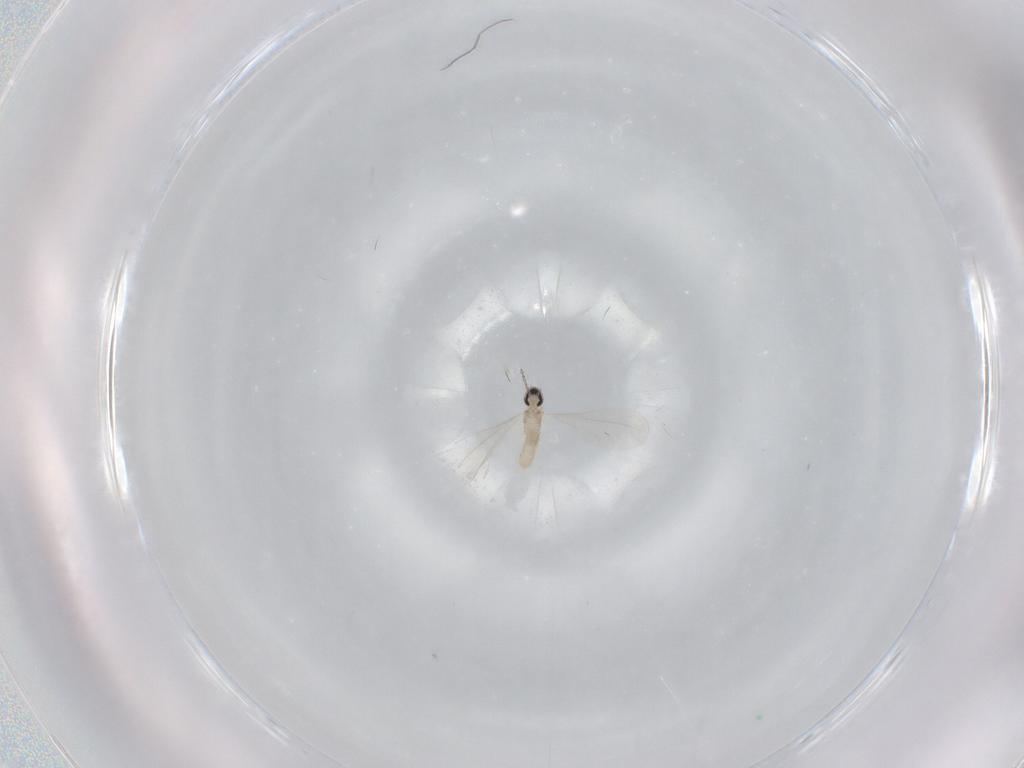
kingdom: Animalia
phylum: Arthropoda
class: Insecta
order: Diptera
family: Cecidomyiidae
